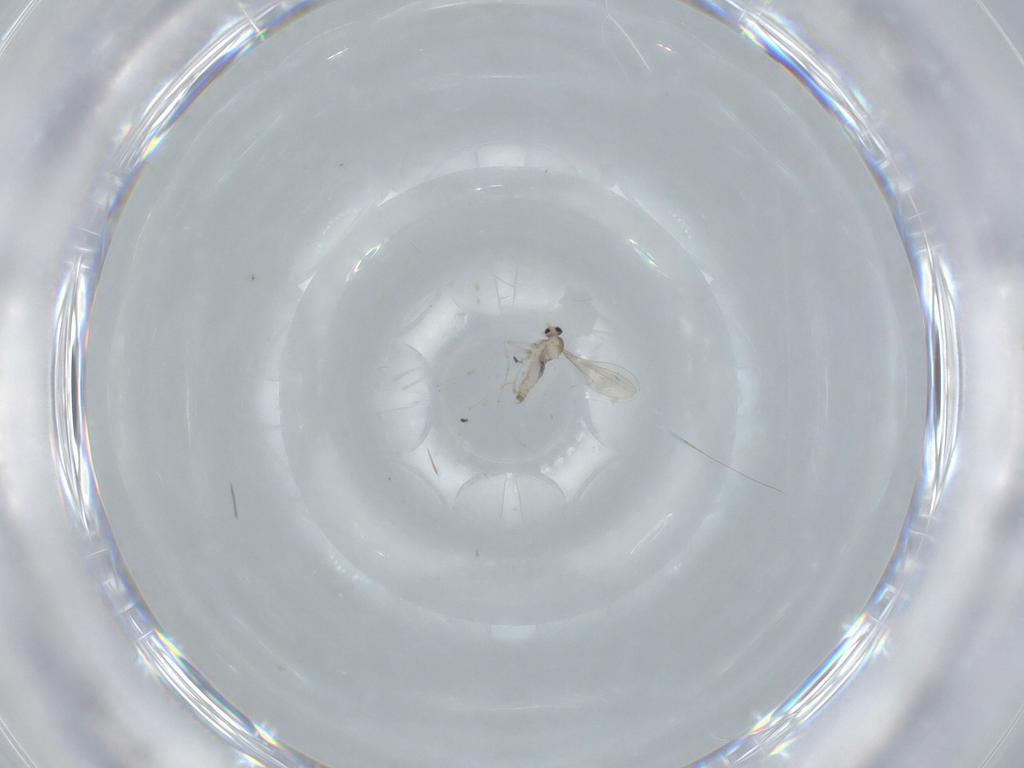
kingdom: Animalia
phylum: Arthropoda
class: Insecta
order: Diptera
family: Cecidomyiidae
